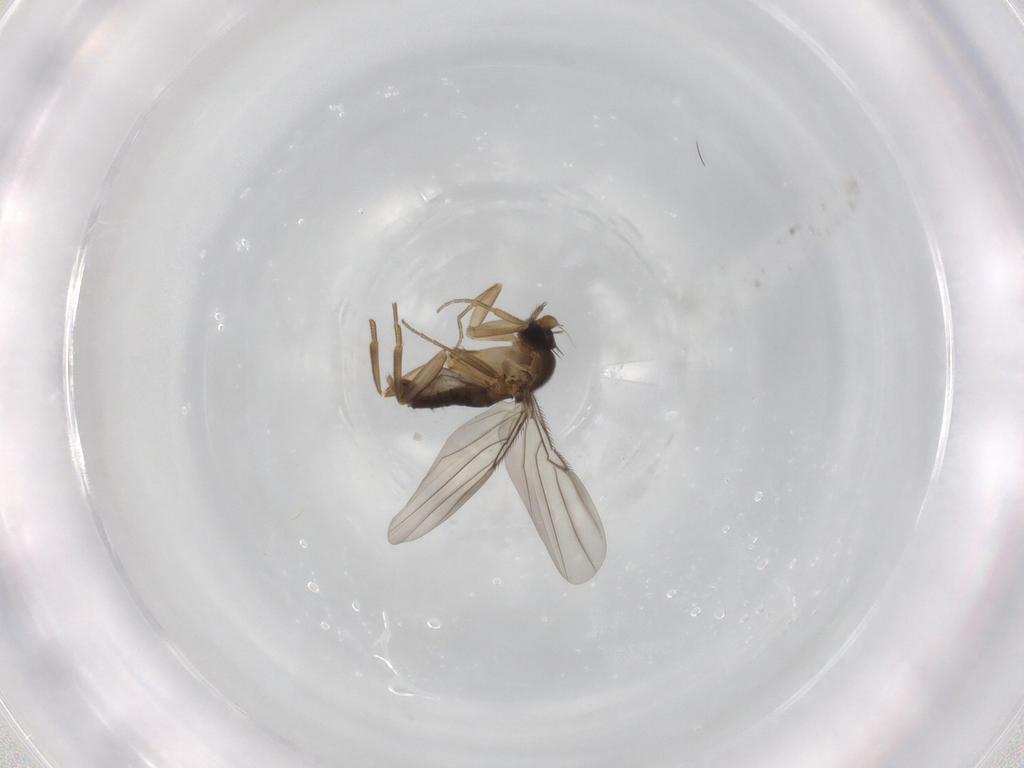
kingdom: Animalia
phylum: Arthropoda
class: Insecta
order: Diptera
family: Phoridae
